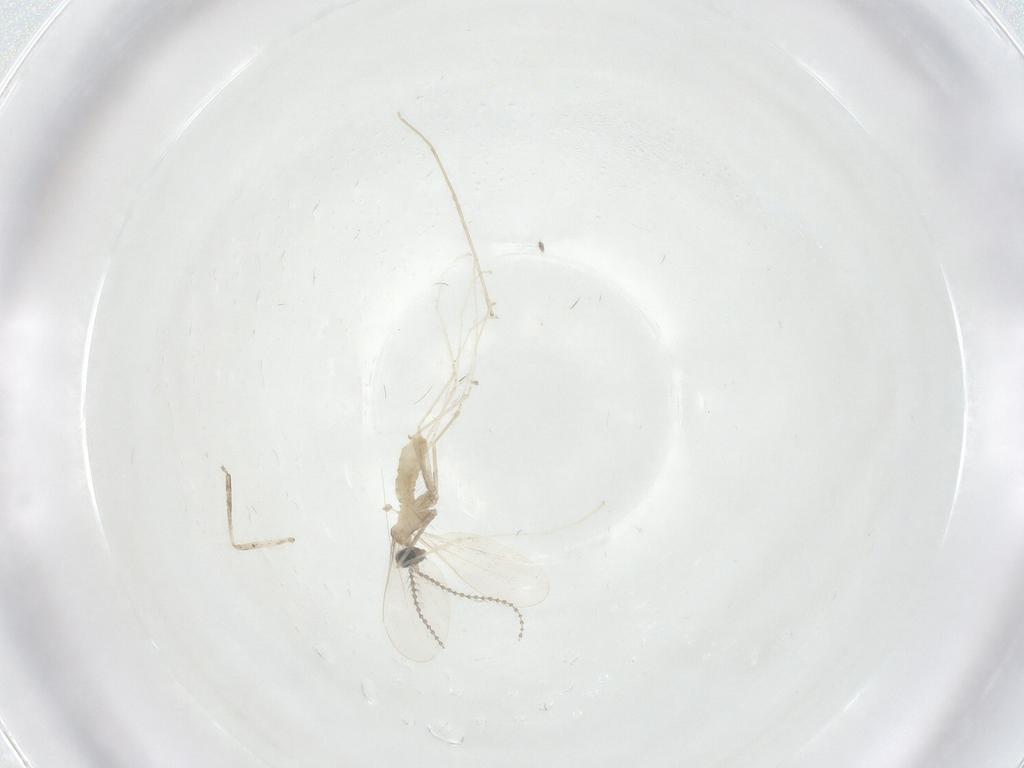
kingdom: Animalia
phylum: Arthropoda
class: Insecta
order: Diptera
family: Cecidomyiidae
